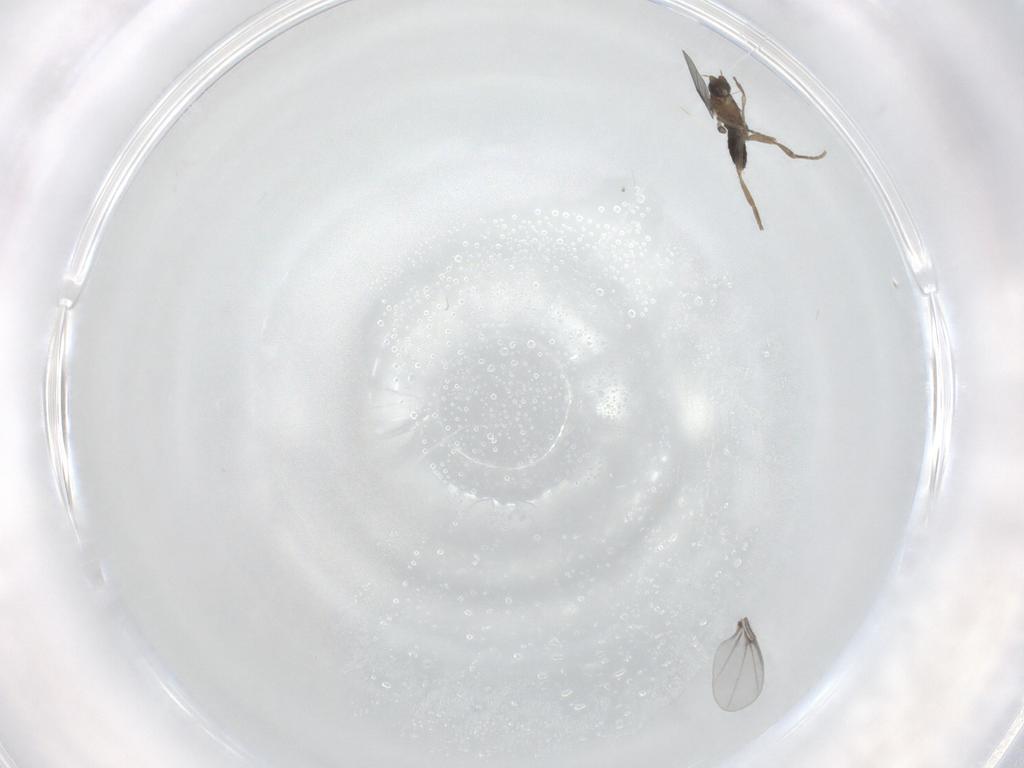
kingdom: Animalia
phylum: Arthropoda
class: Insecta
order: Diptera
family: Phoridae
